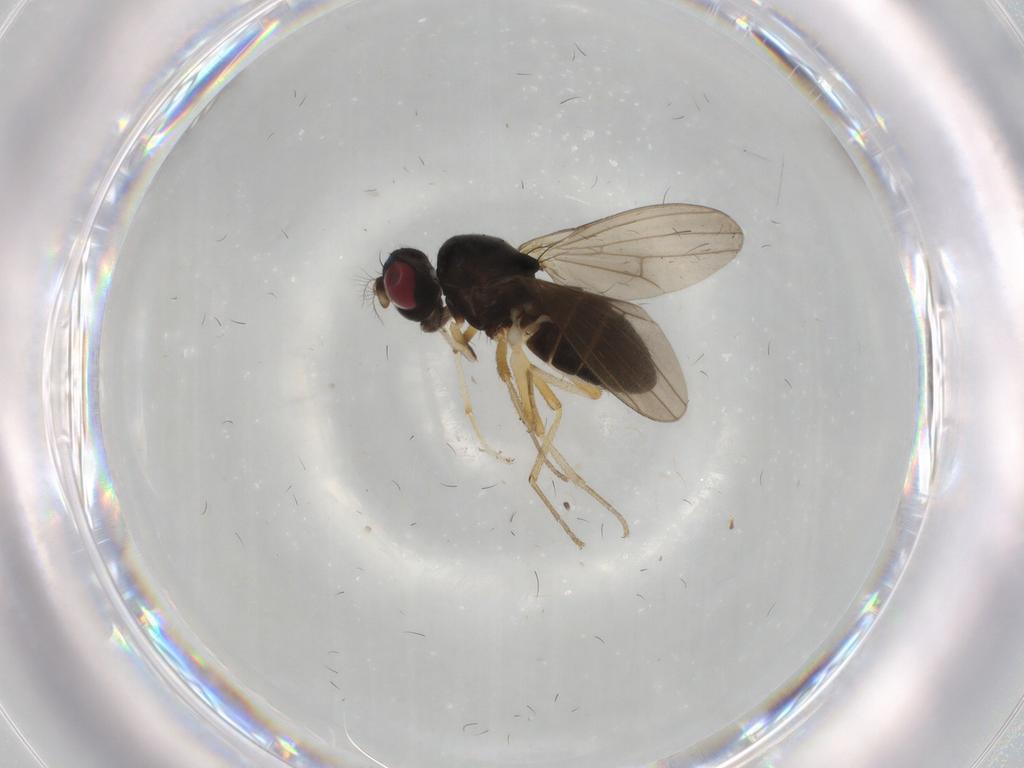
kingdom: Animalia
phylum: Arthropoda
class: Insecta
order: Diptera
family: Lauxaniidae
